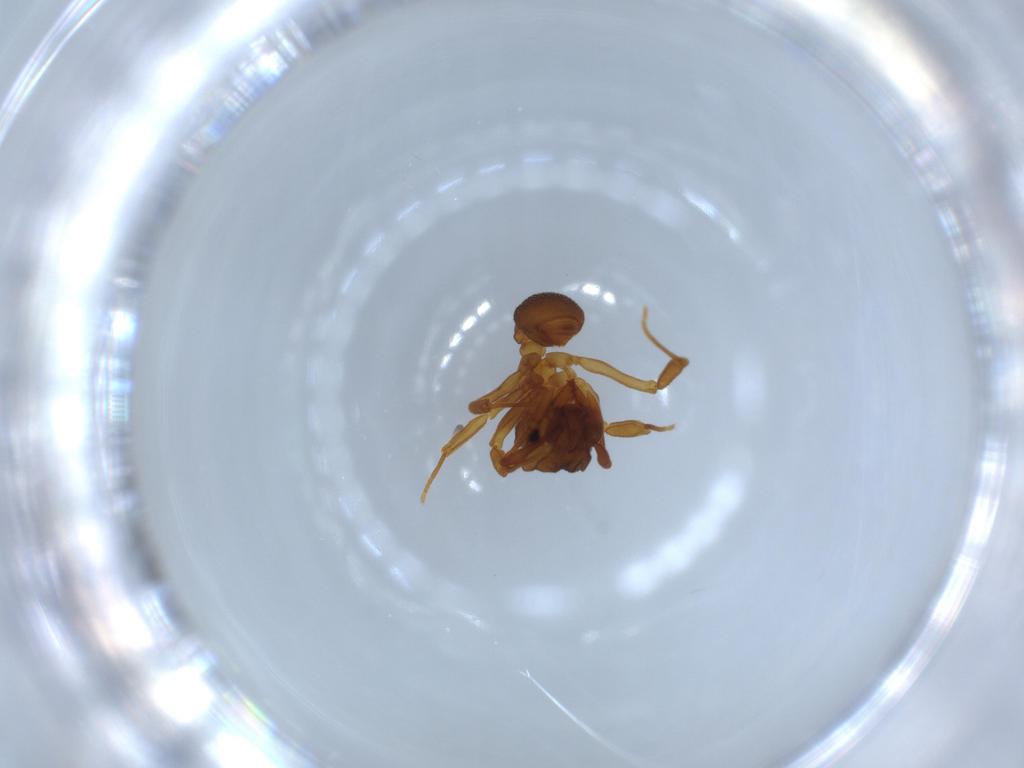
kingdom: Animalia
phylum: Arthropoda
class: Insecta
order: Hymenoptera
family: Formicidae
